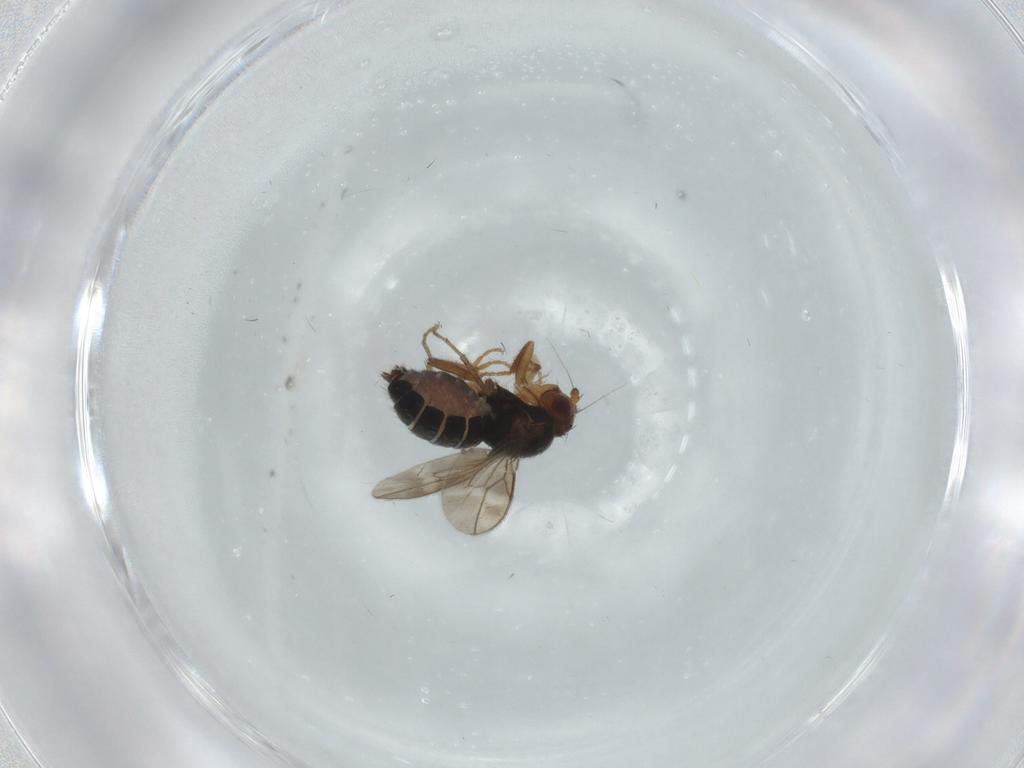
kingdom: Animalia
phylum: Arthropoda
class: Insecta
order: Diptera
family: Sphaeroceridae
